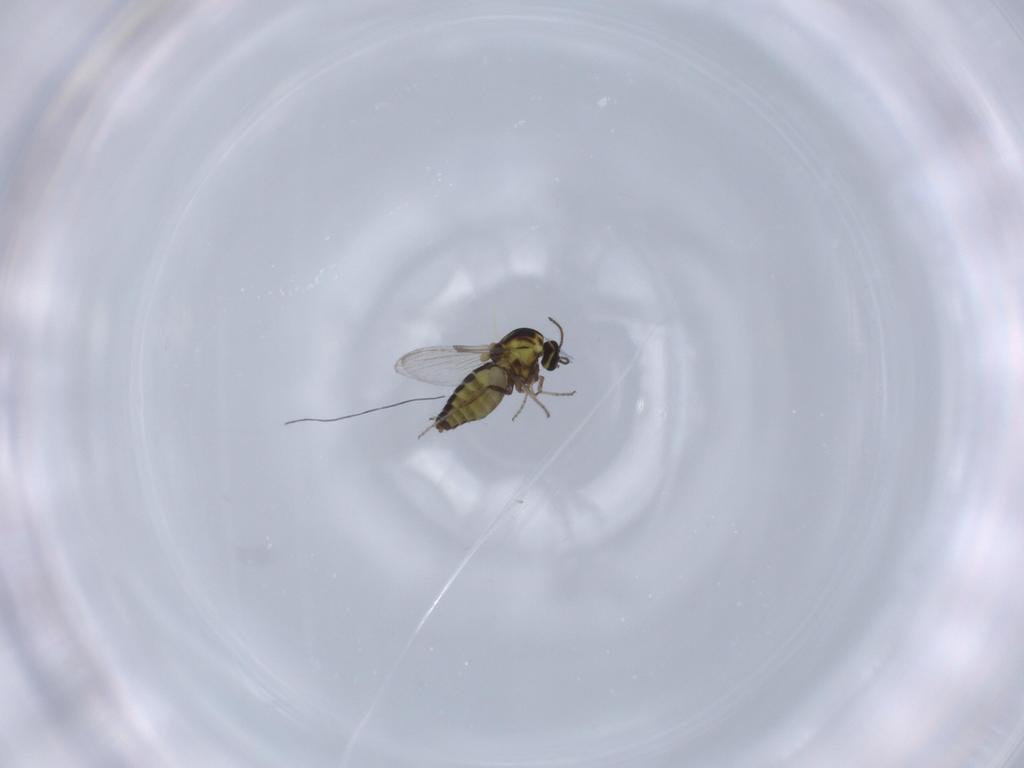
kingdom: Animalia
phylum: Arthropoda
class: Insecta
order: Diptera
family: Ceratopogonidae
